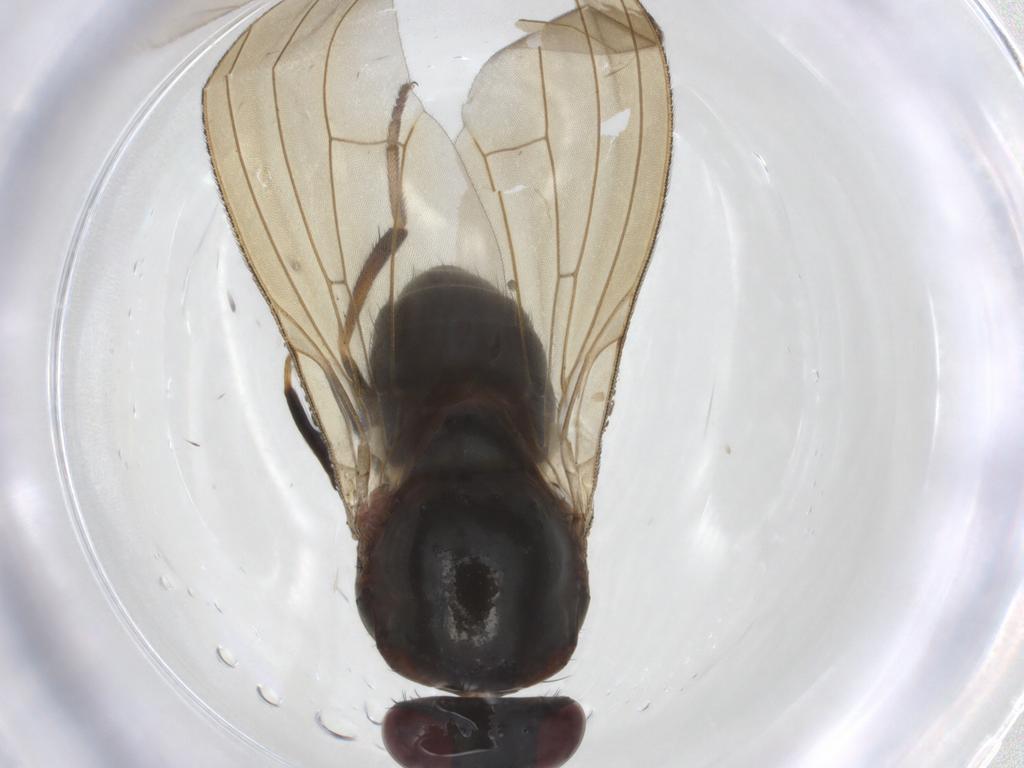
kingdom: Animalia
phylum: Arthropoda
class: Insecta
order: Diptera
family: Lauxaniidae
